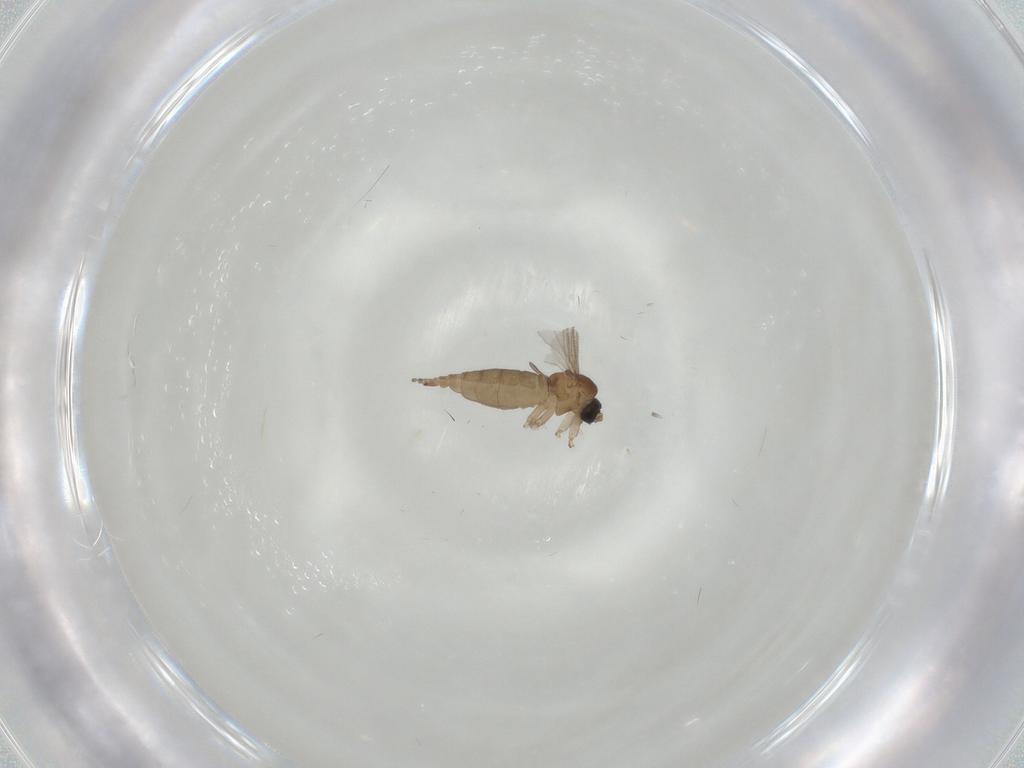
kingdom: Animalia
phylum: Arthropoda
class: Insecta
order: Diptera
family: Sciaridae
